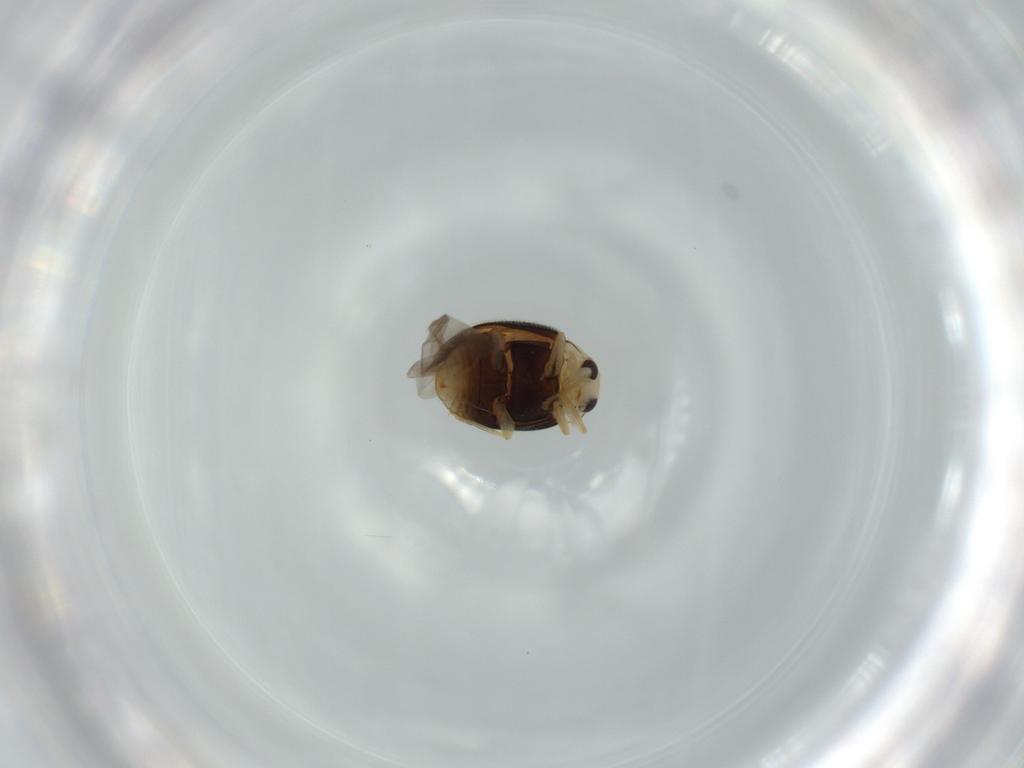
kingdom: Animalia
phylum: Arthropoda
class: Insecta
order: Coleoptera
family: Coccinellidae
